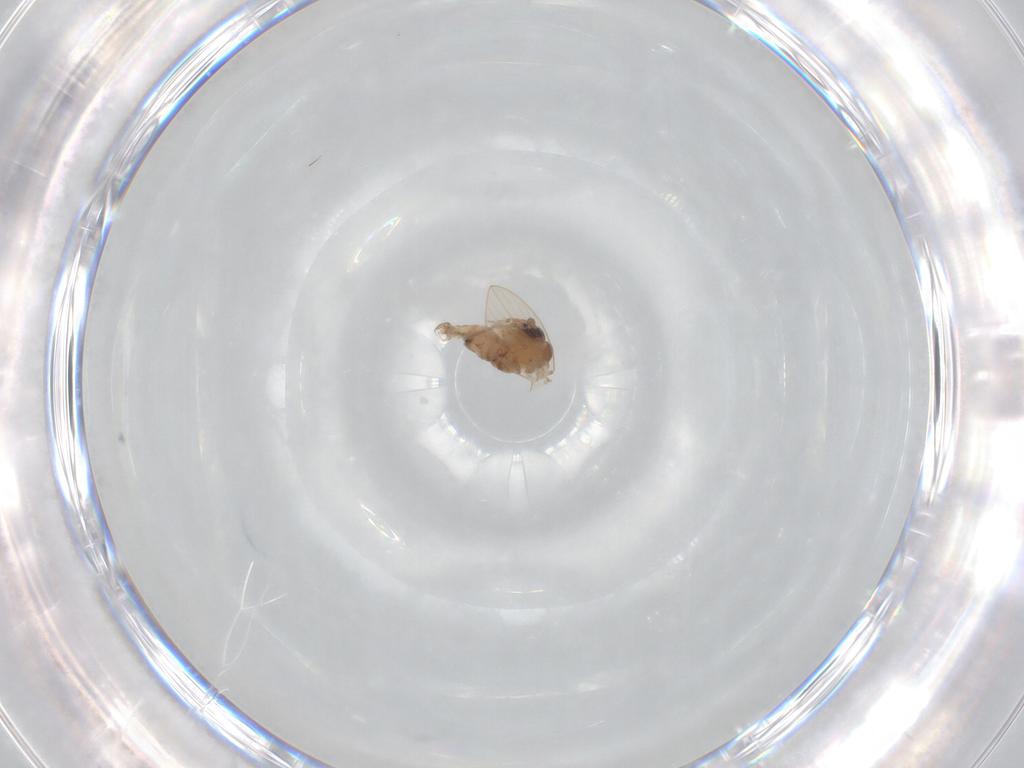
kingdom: Animalia
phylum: Arthropoda
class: Insecta
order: Diptera
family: Psychodidae
